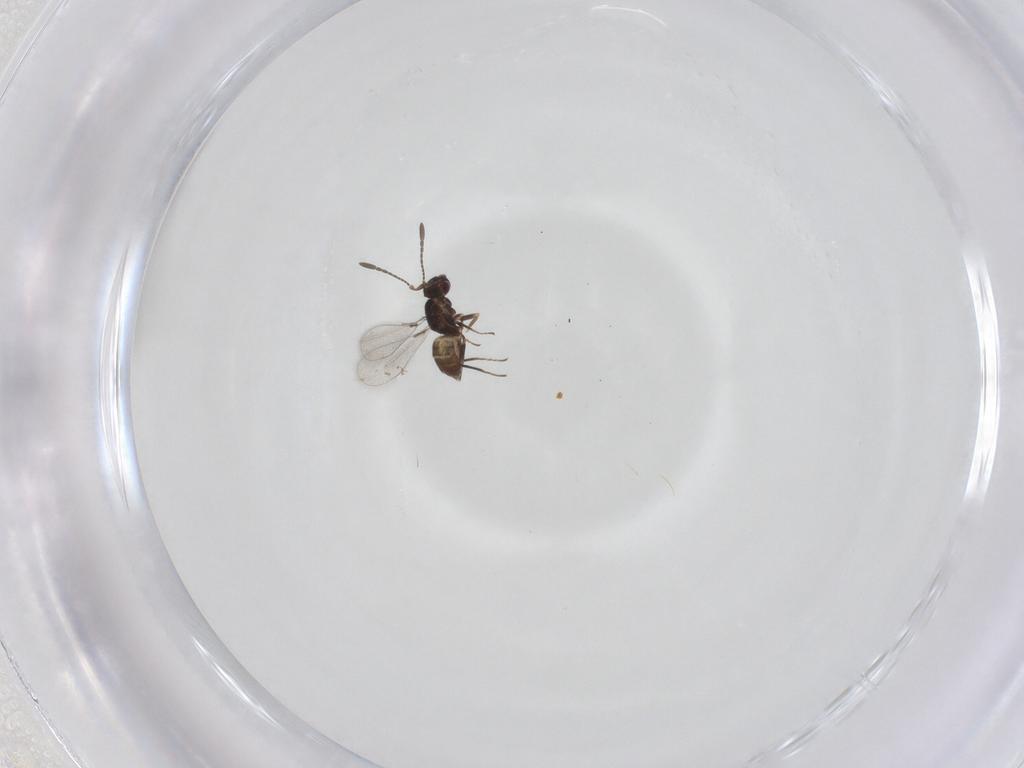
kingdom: Animalia
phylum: Arthropoda
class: Insecta
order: Hymenoptera
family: Mymaridae
